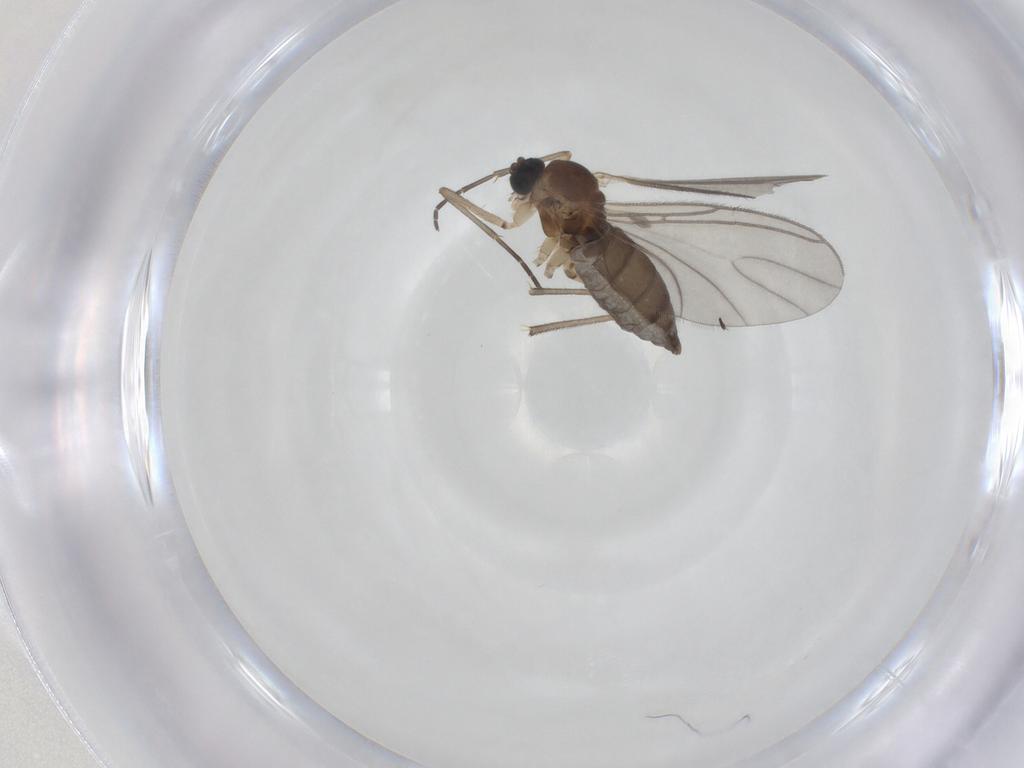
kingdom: Animalia
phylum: Arthropoda
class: Insecta
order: Diptera
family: Sciaridae
